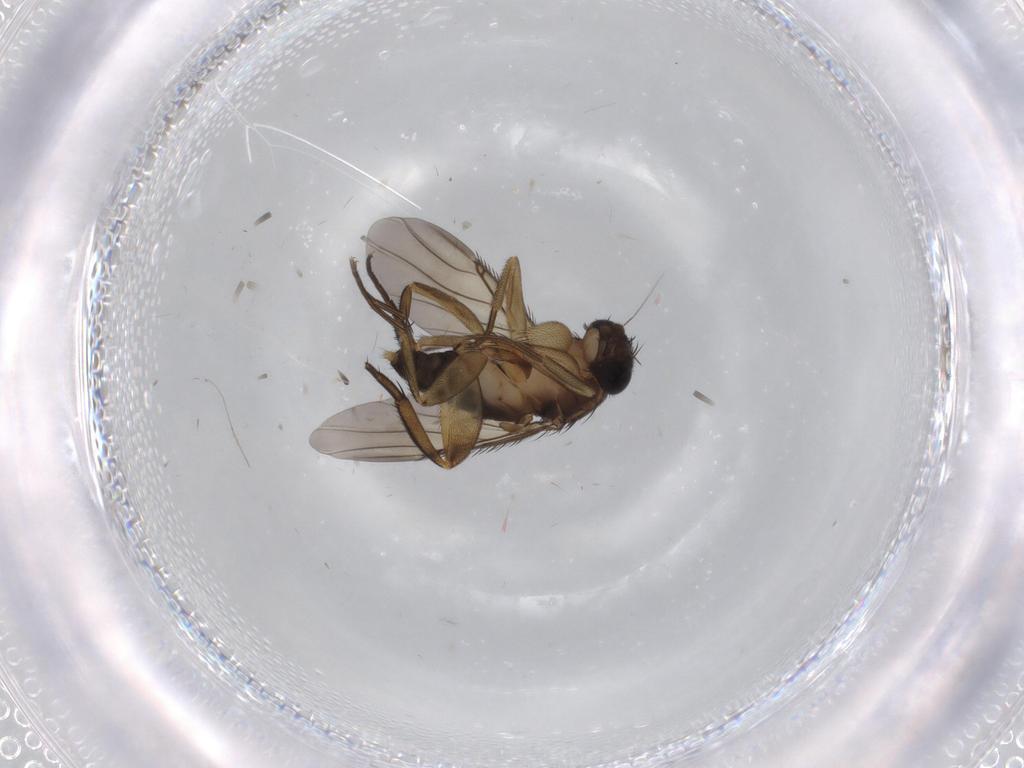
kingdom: Animalia
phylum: Arthropoda
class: Insecta
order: Diptera
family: Phoridae
